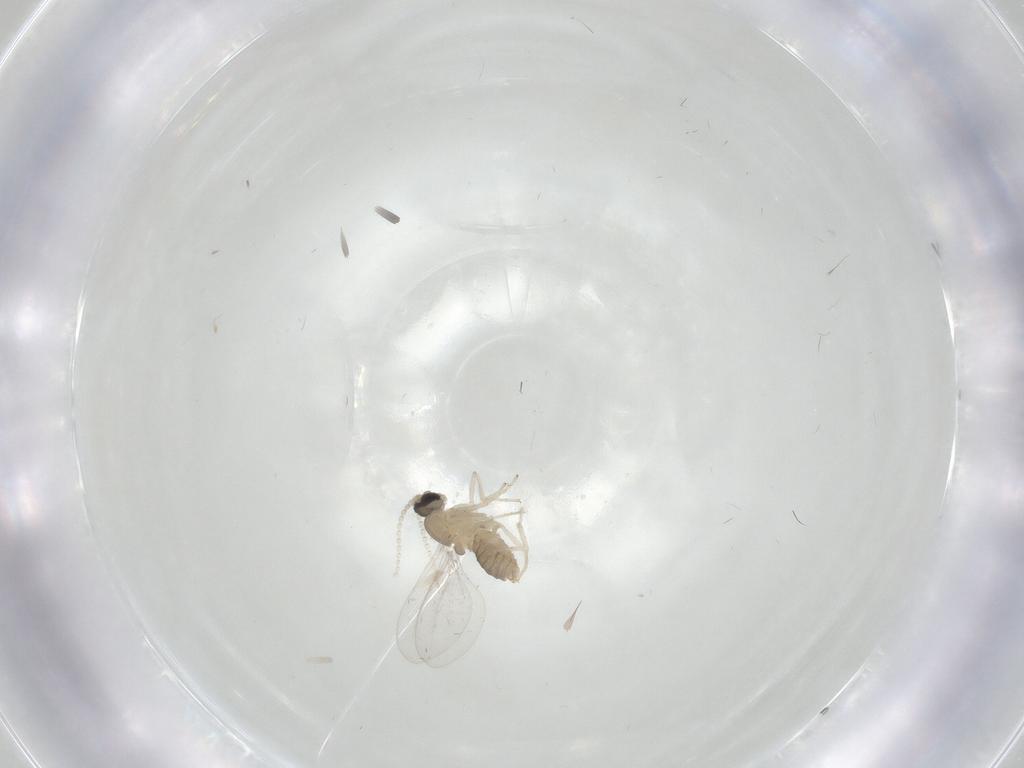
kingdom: Animalia
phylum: Arthropoda
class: Insecta
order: Diptera
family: Cecidomyiidae
